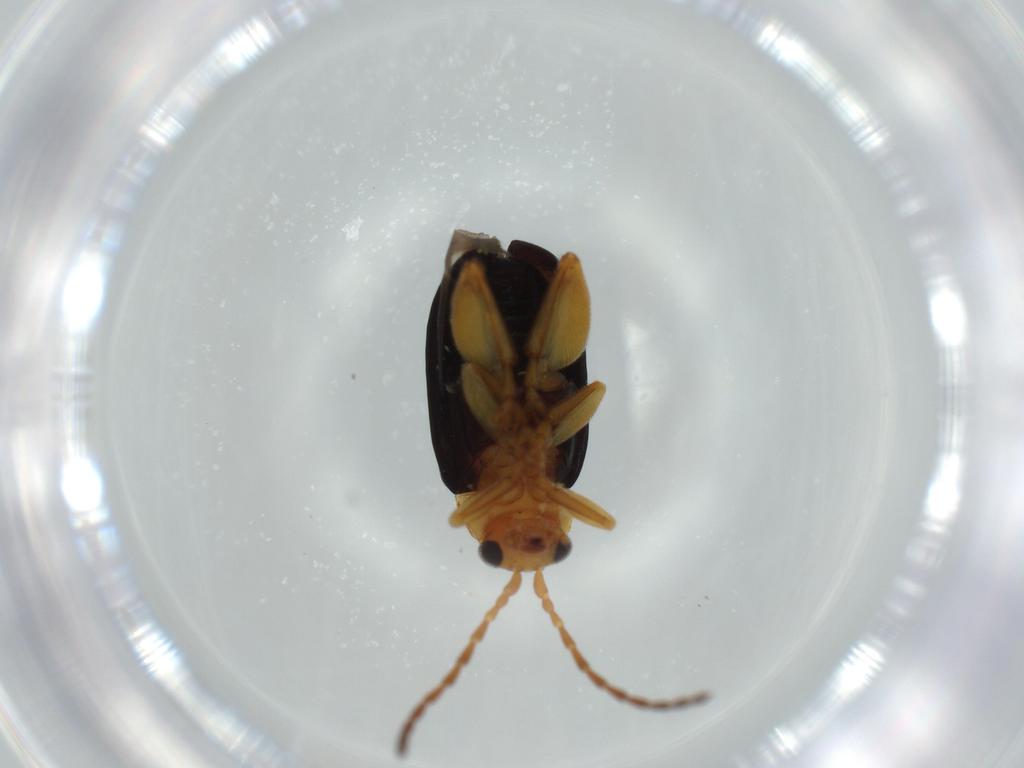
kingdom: Animalia
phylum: Arthropoda
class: Insecta
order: Coleoptera
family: Chrysomelidae
